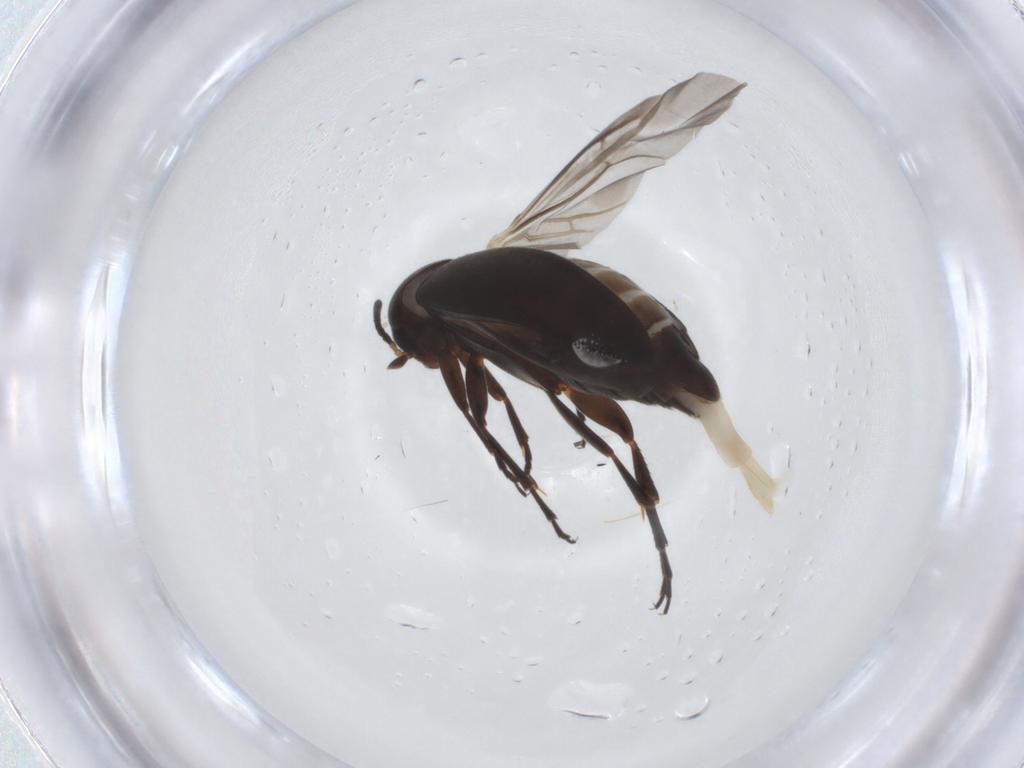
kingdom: Animalia
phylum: Arthropoda
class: Insecta
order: Coleoptera
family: Scraptiidae
